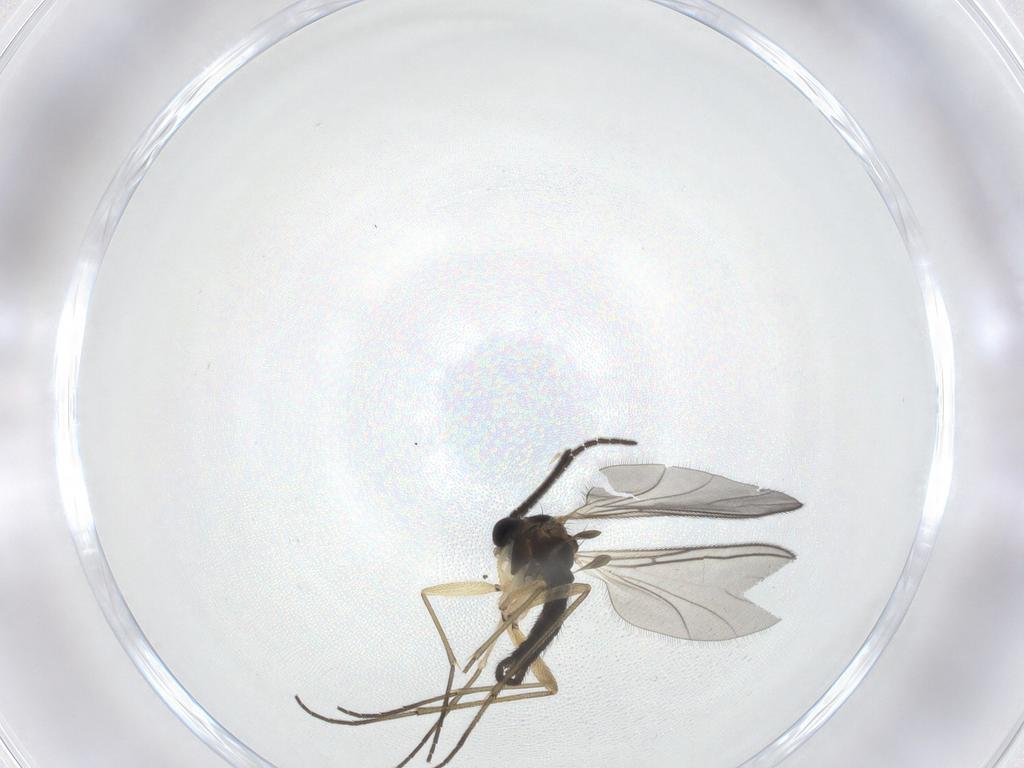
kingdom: Animalia
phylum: Arthropoda
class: Insecta
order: Diptera
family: Sciaridae
